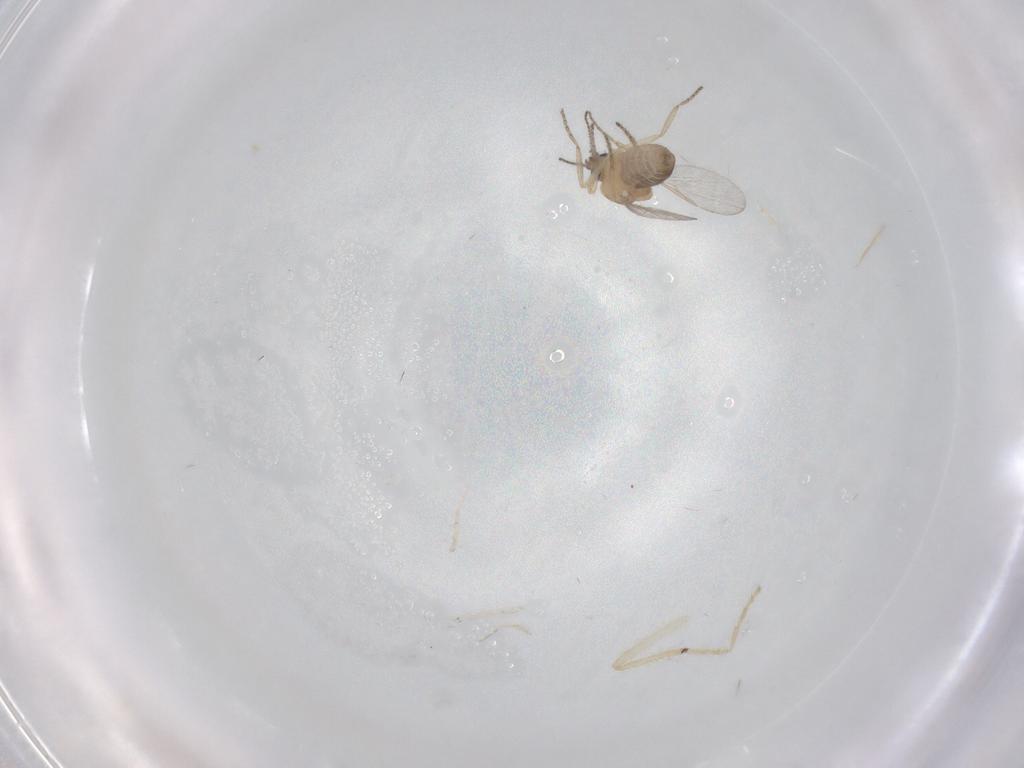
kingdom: Animalia
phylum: Arthropoda
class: Insecta
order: Diptera
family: Ceratopogonidae
